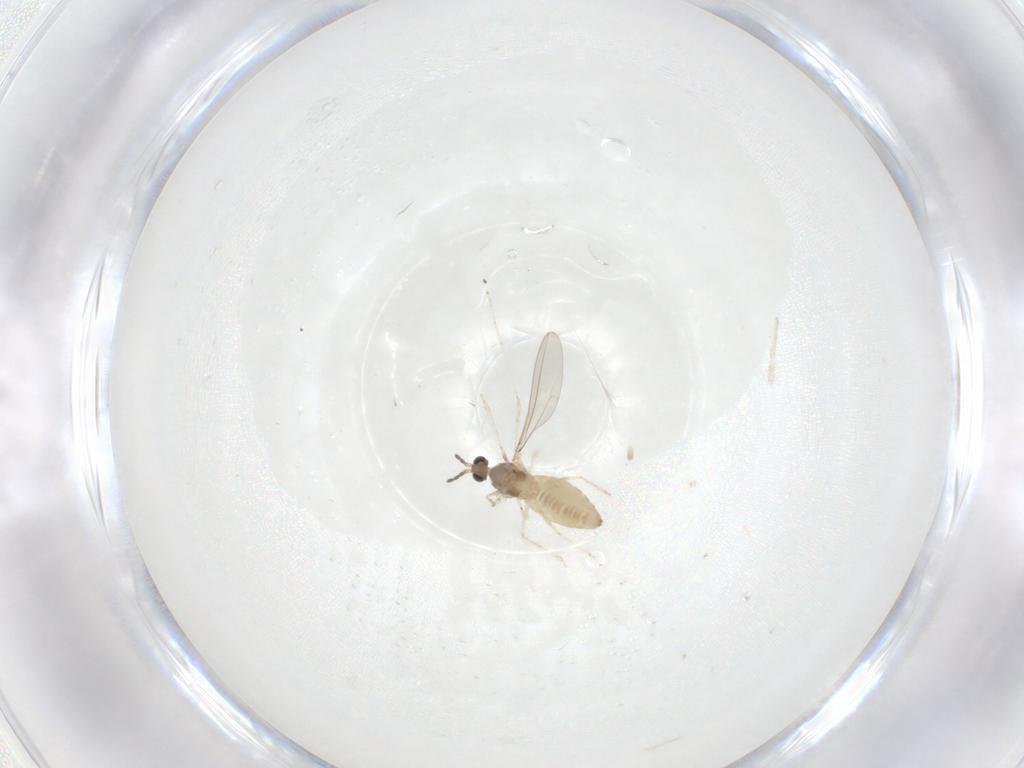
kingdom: Animalia
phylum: Arthropoda
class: Insecta
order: Diptera
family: Cecidomyiidae
